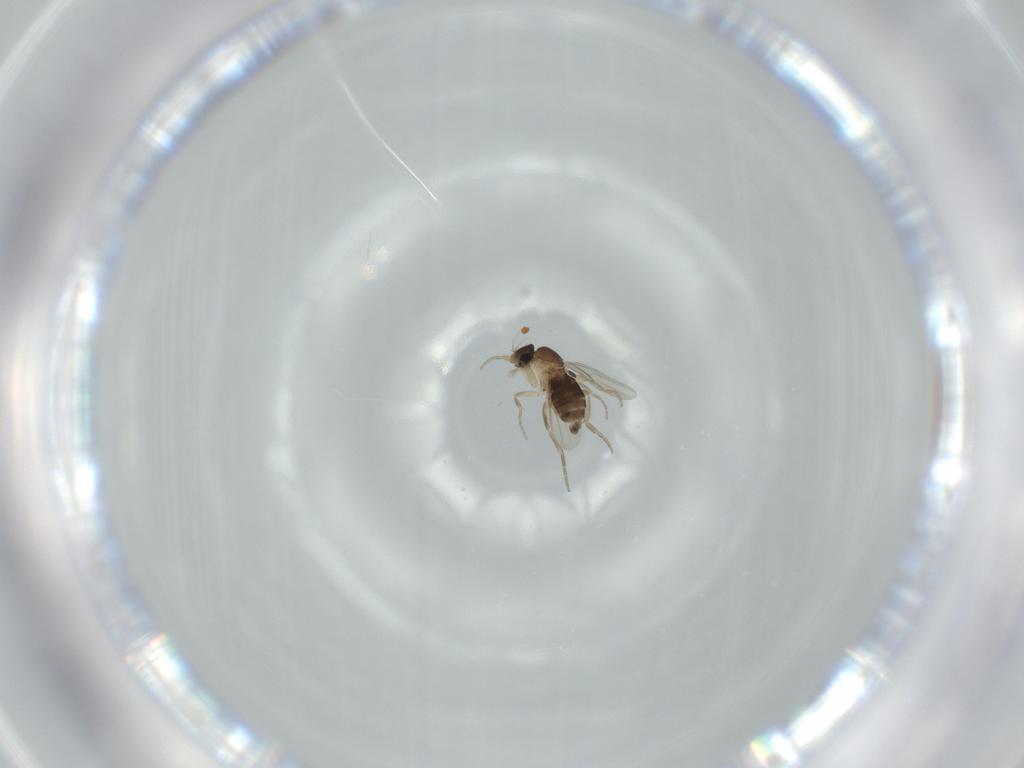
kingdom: Animalia
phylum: Arthropoda
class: Insecta
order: Diptera
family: Phoridae
